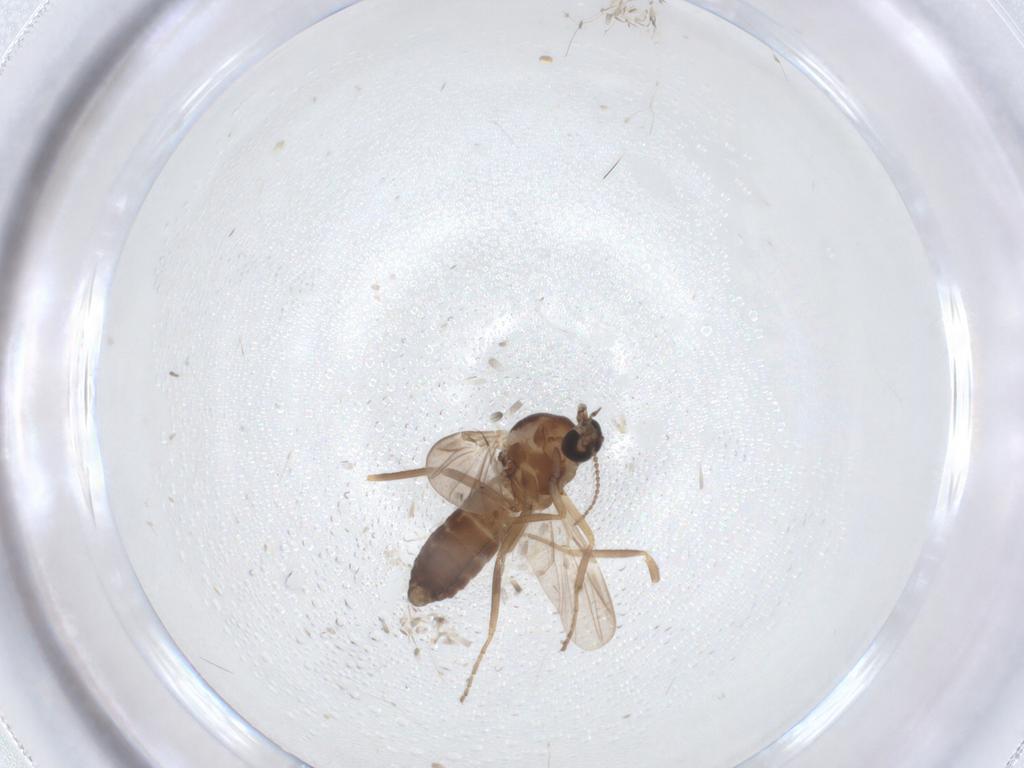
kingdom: Animalia
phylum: Arthropoda
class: Insecta
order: Diptera
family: Ceratopogonidae
